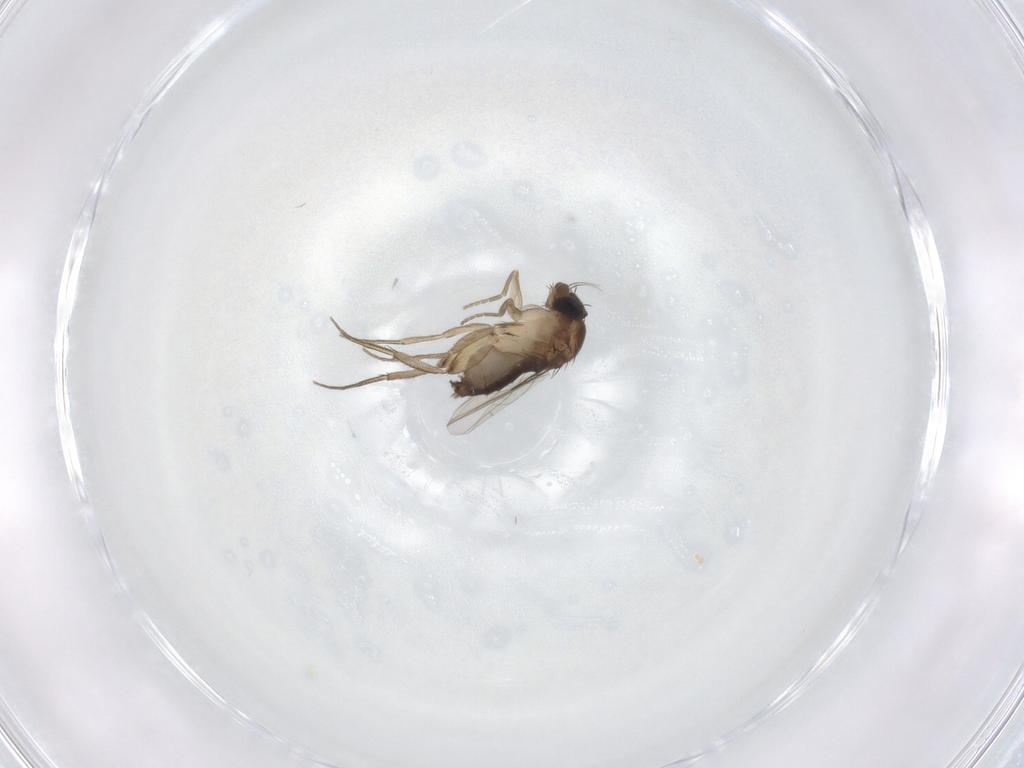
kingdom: Animalia
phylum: Arthropoda
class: Insecta
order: Diptera
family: Phoridae
